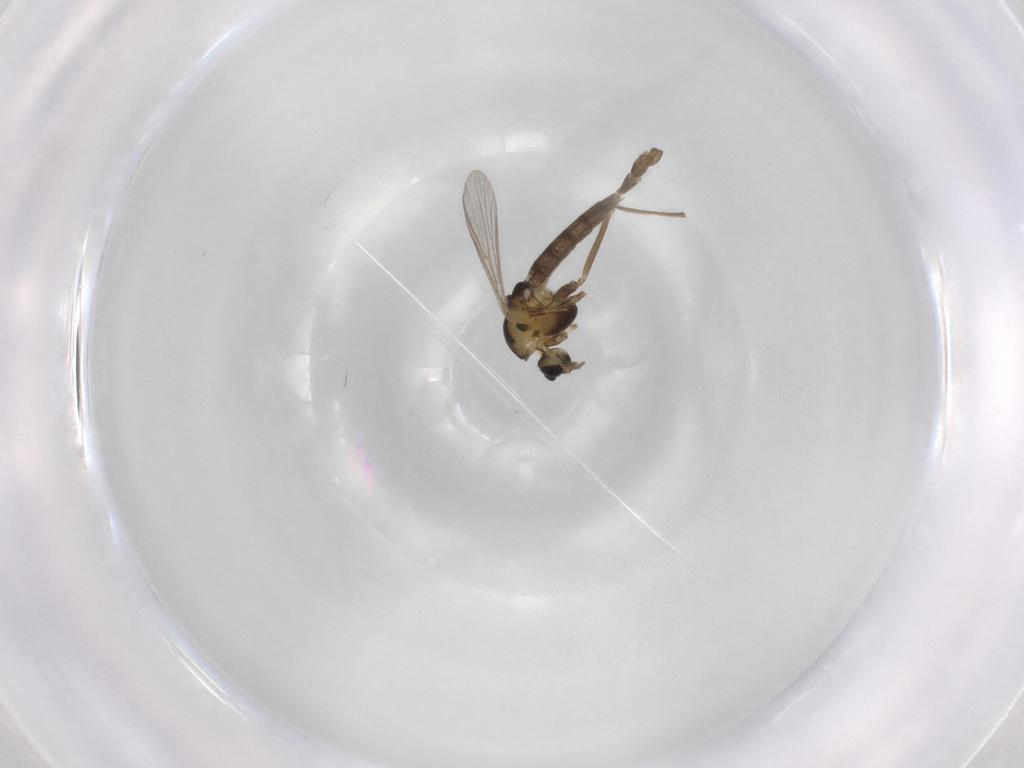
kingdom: Animalia
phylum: Arthropoda
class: Insecta
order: Diptera
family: Chironomidae
